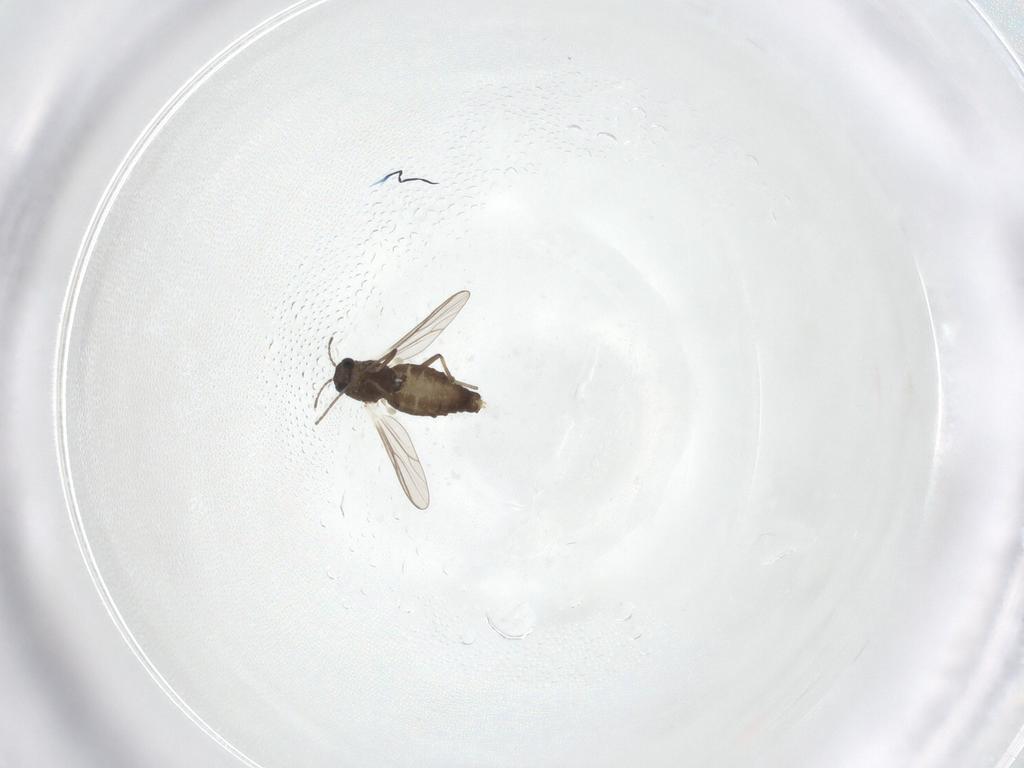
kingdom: Animalia
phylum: Arthropoda
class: Insecta
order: Diptera
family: Chironomidae
